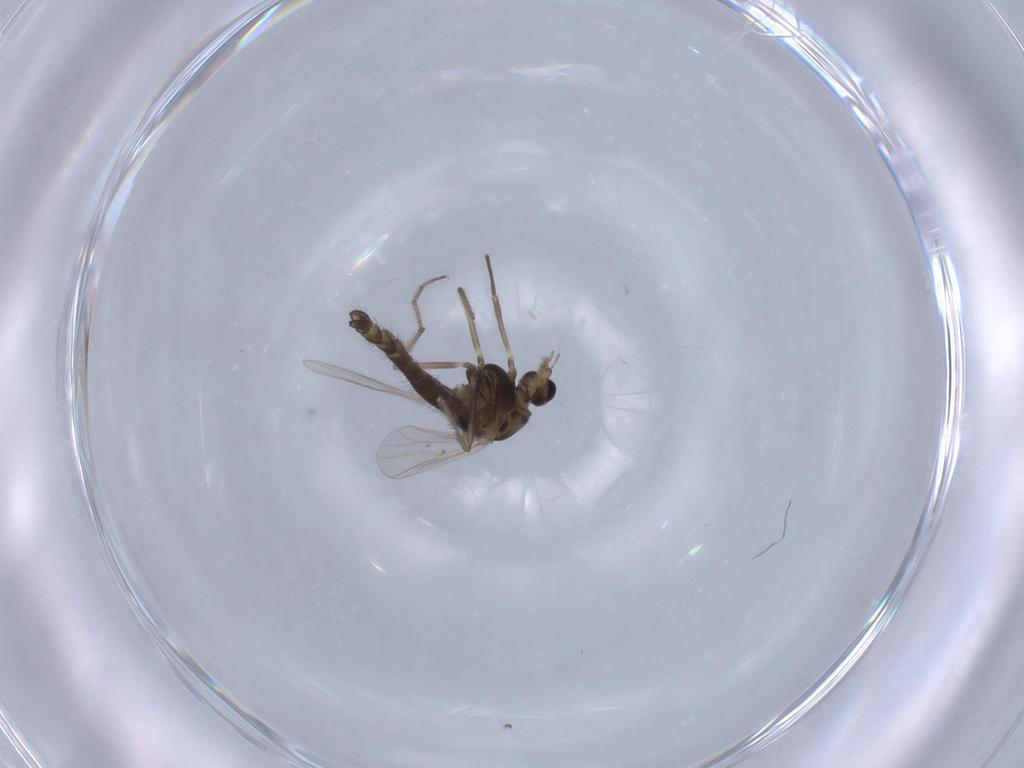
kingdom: Animalia
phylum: Arthropoda
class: Insecta
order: Diptera
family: Chironomidae
